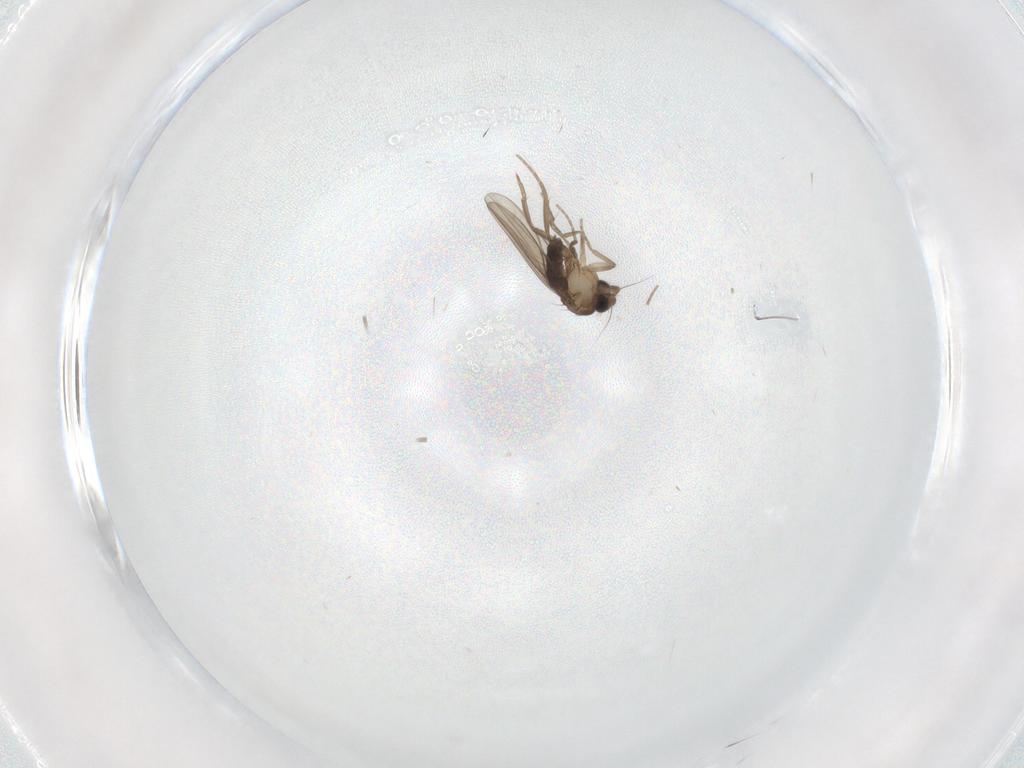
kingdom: Animalia
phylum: Arthropoda
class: Insecta
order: Diptera
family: Phoridae
